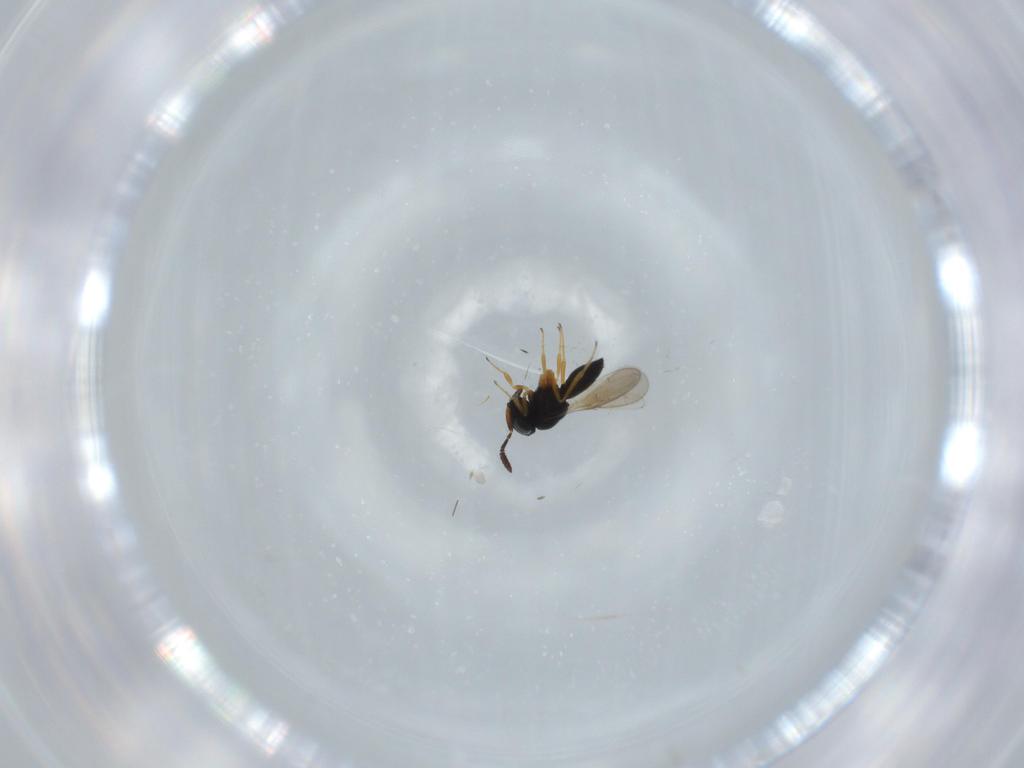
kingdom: Animalia
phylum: Arthropoda
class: Insecta
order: Hymenoptera
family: Scelionidae
